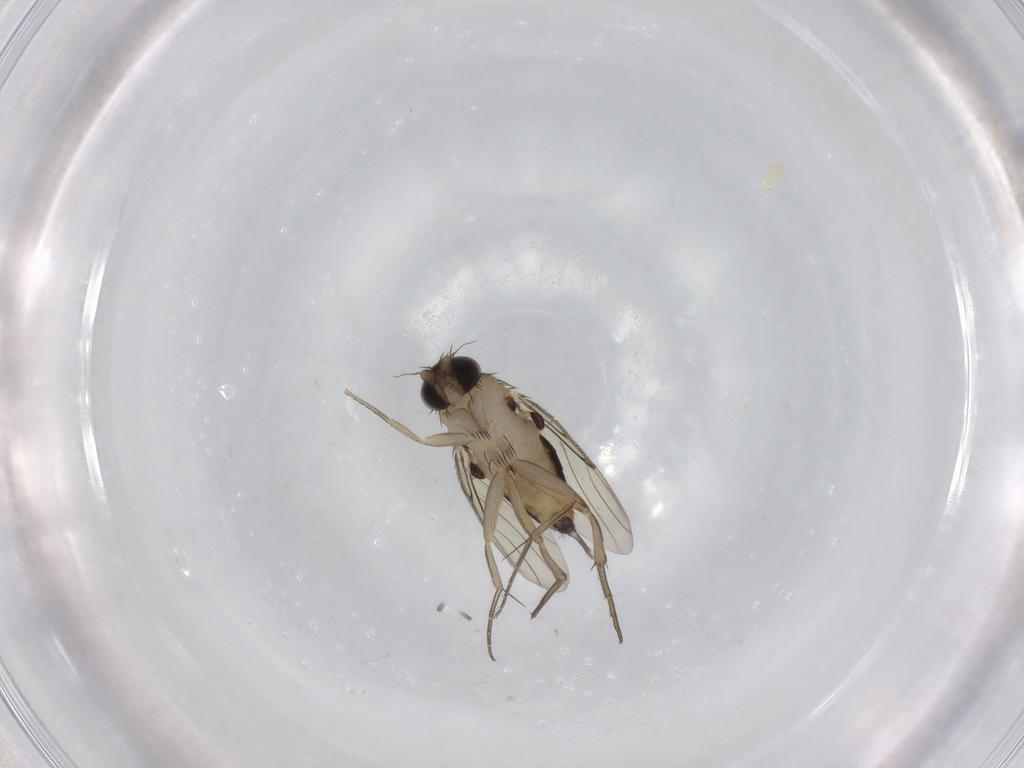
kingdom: Animalia
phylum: Arthropoda
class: Insecta
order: Diptera
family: Phoridae
